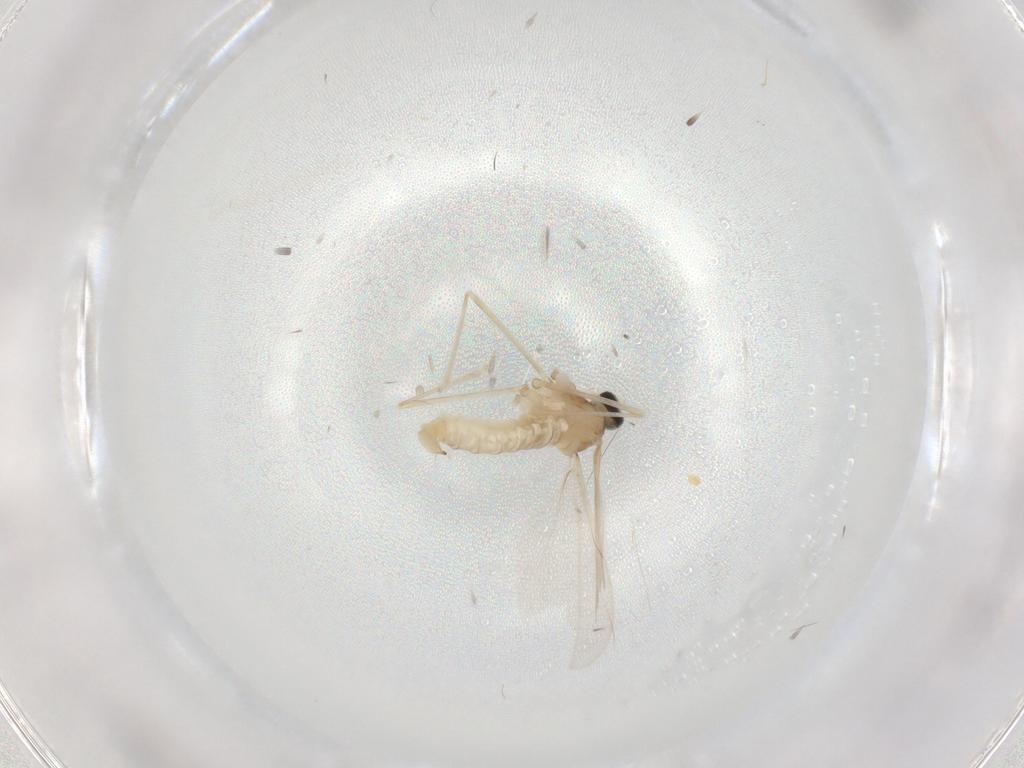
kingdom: Animalia
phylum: Arthropoda
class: Insecta
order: Diptera
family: Cecidomyiidae
